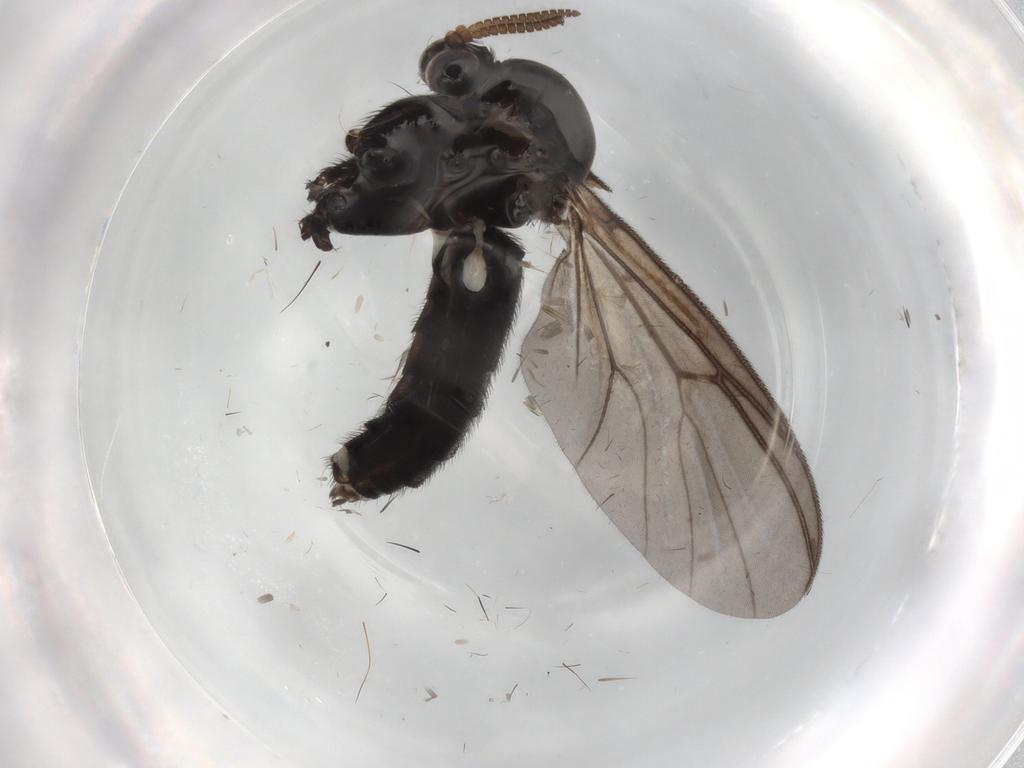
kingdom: Animalia
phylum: Arthropoda
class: Insecta
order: Diptera
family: Mycetophilidae
